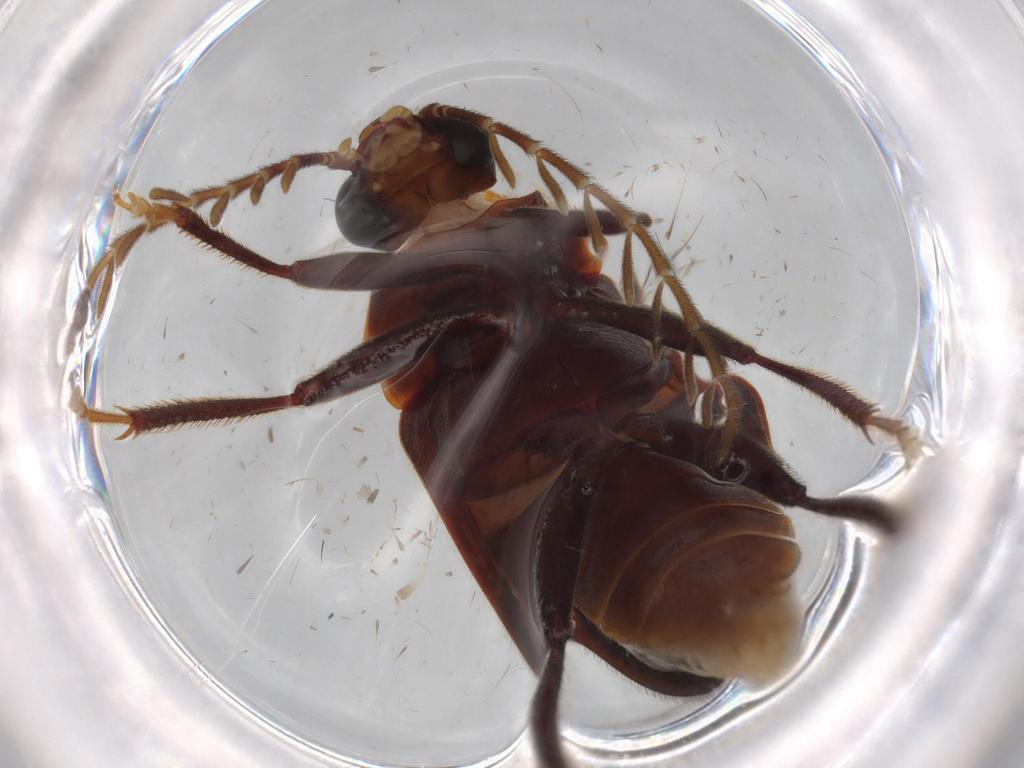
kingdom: Animalia
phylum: Arthropoda
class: Insecta
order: Coleoptera
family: Ptilodactylidae
